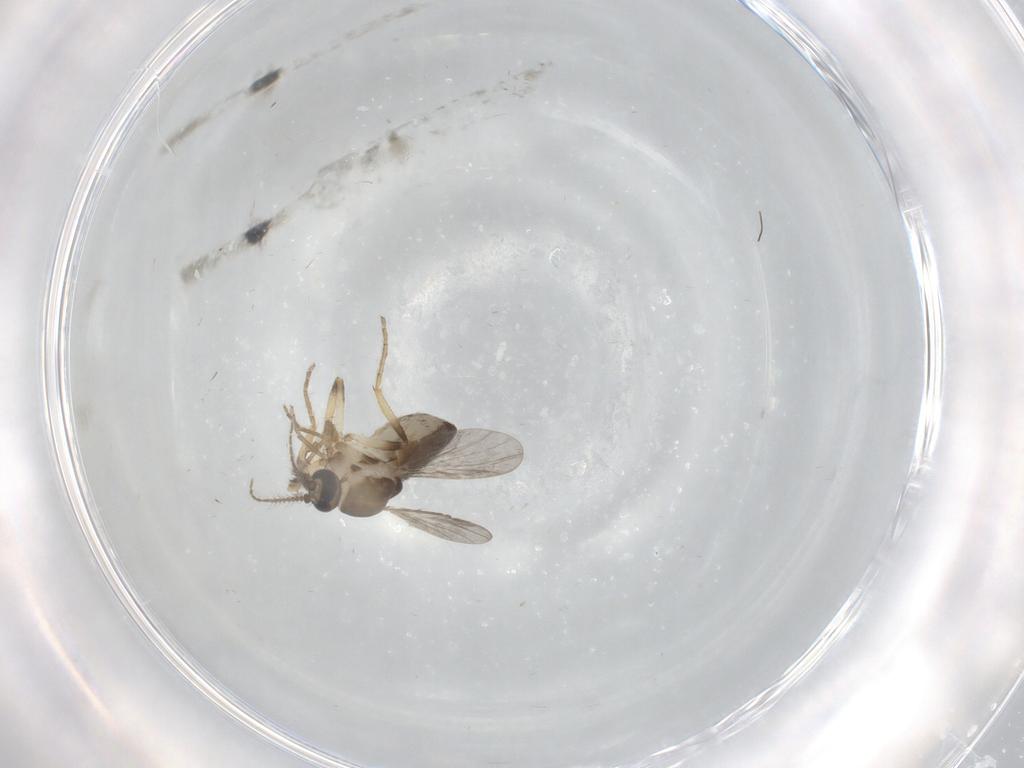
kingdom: Animalia
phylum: Arthropoda
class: Insecta
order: Diptera
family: Ceratopogonidae
